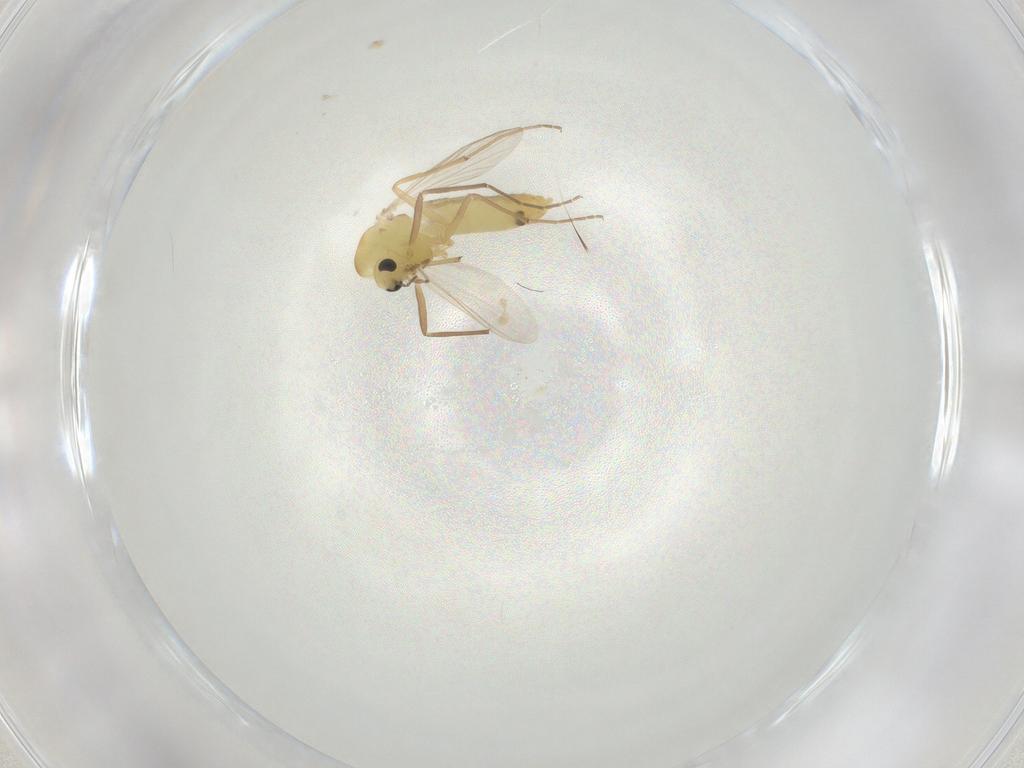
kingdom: Animalia
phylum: Arthropoda
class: Insecta
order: Diptera
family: Chironomidae
